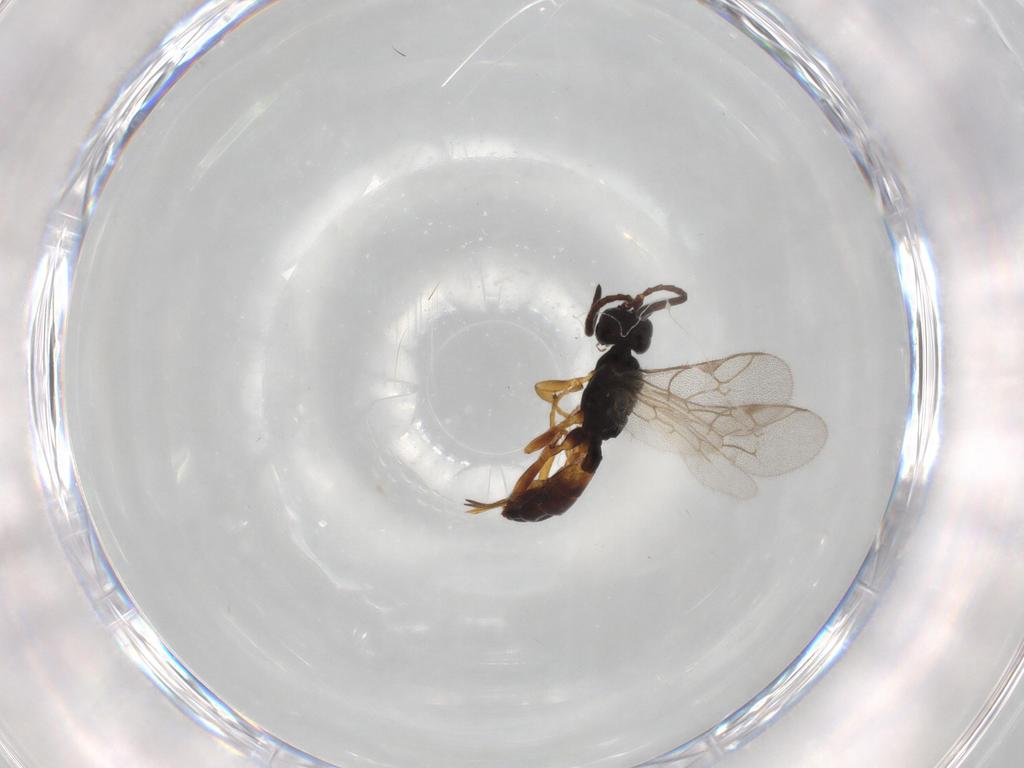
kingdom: Animalia
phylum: Arthropoda
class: Insecta
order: Hymenoptera
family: Ichneumonidae
